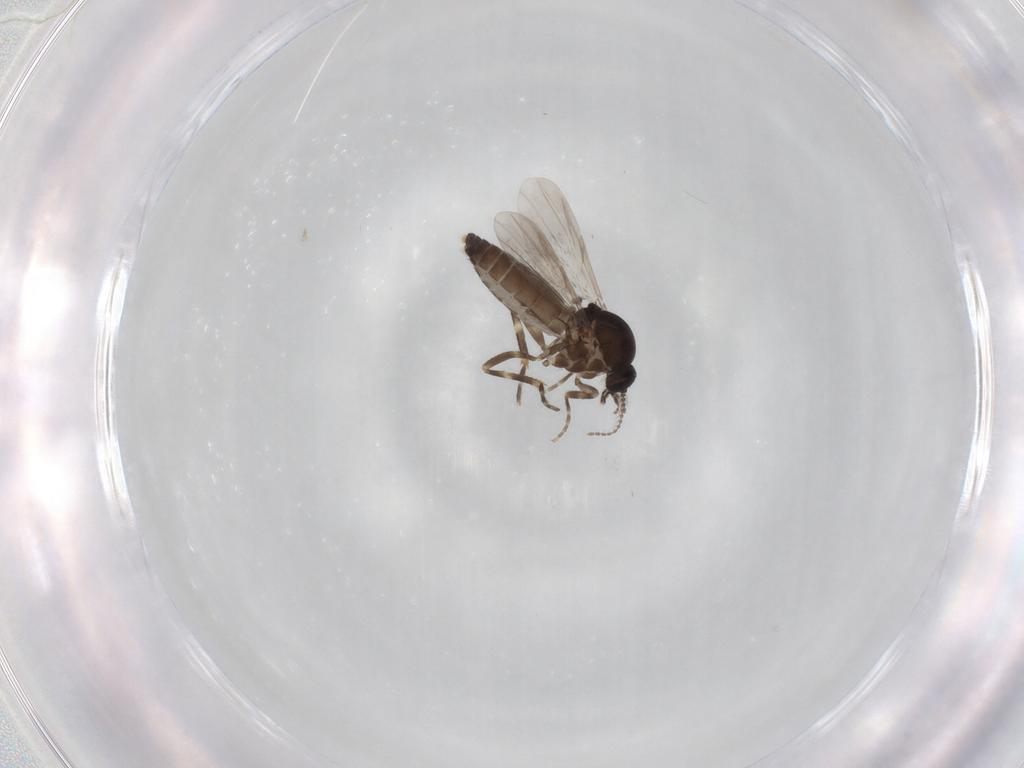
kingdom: Animalia
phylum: Arthropoda
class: Insecta
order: Diptera
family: Ceratopogonidae
